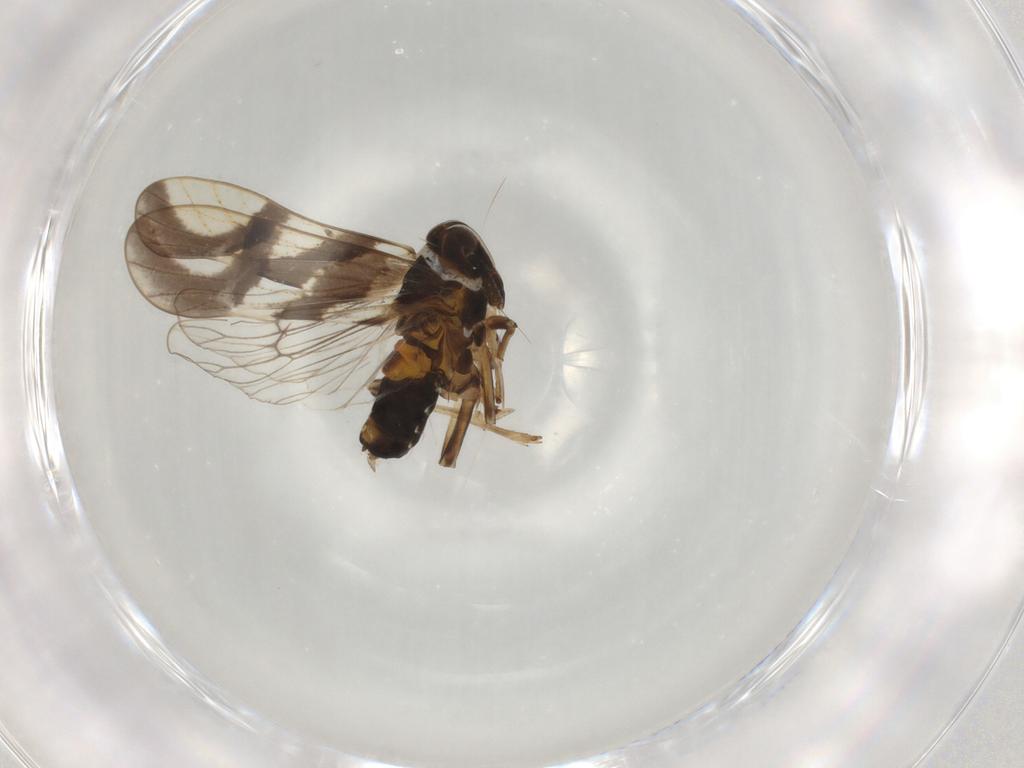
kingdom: Animalia
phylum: Arthropoda
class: Insecta
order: Hemiptera
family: Delphacidae
